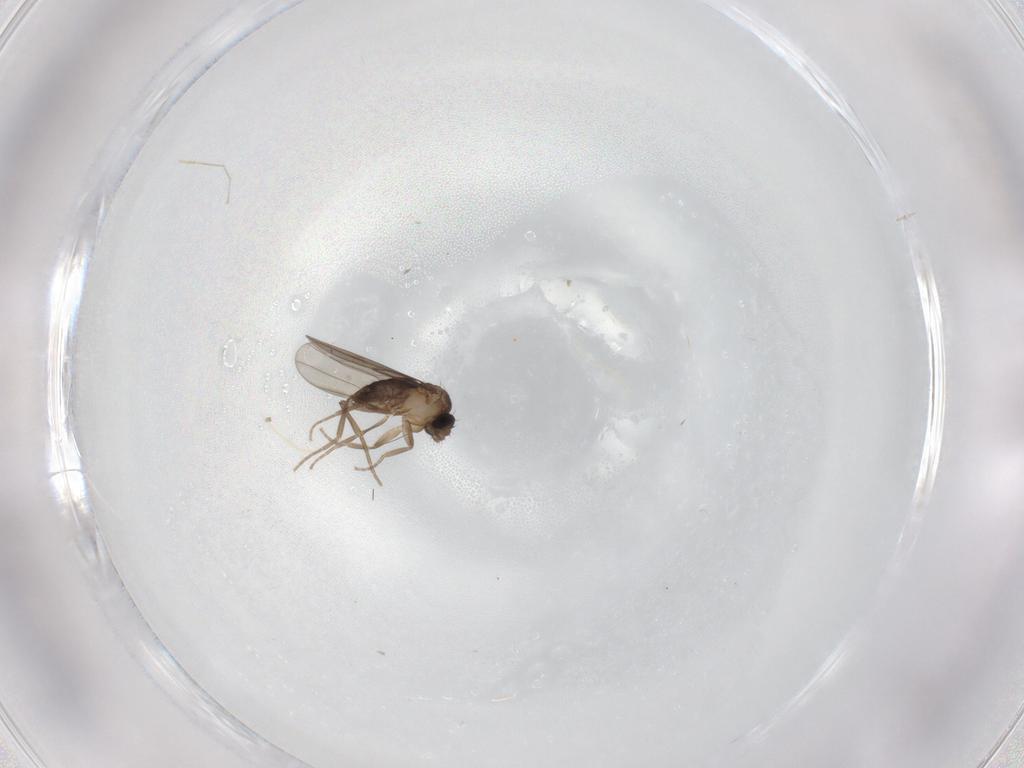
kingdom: Animalia
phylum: Arthropoda
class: Insecta
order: Diptera
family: Phoridae
